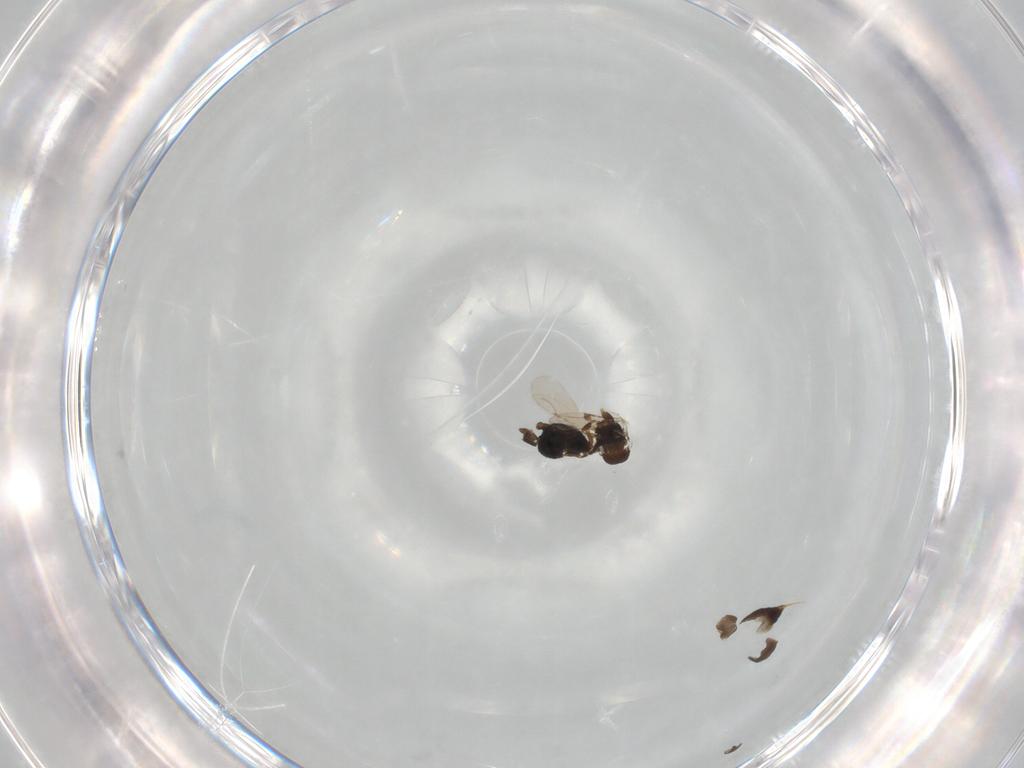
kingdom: Animalia
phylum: Arthropoda
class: Insecta
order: Hymenoptera
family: Platygastridae
